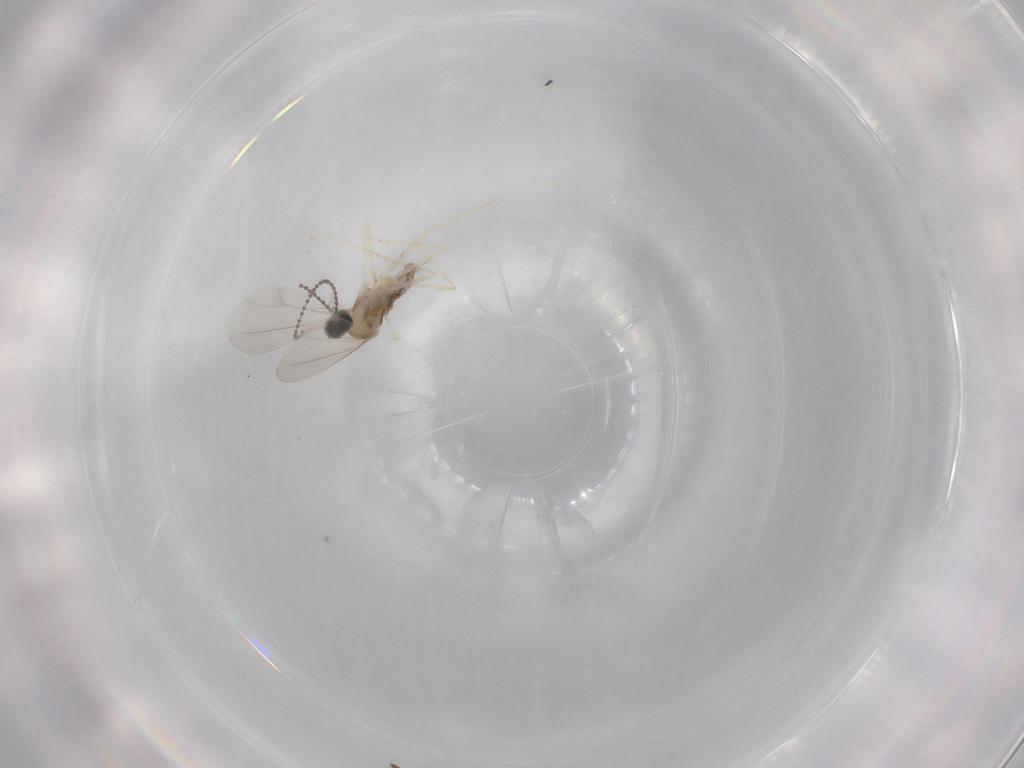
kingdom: Animalia
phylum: Arthropoda
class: Insecta
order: Diptera
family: Cecidomyiidae
